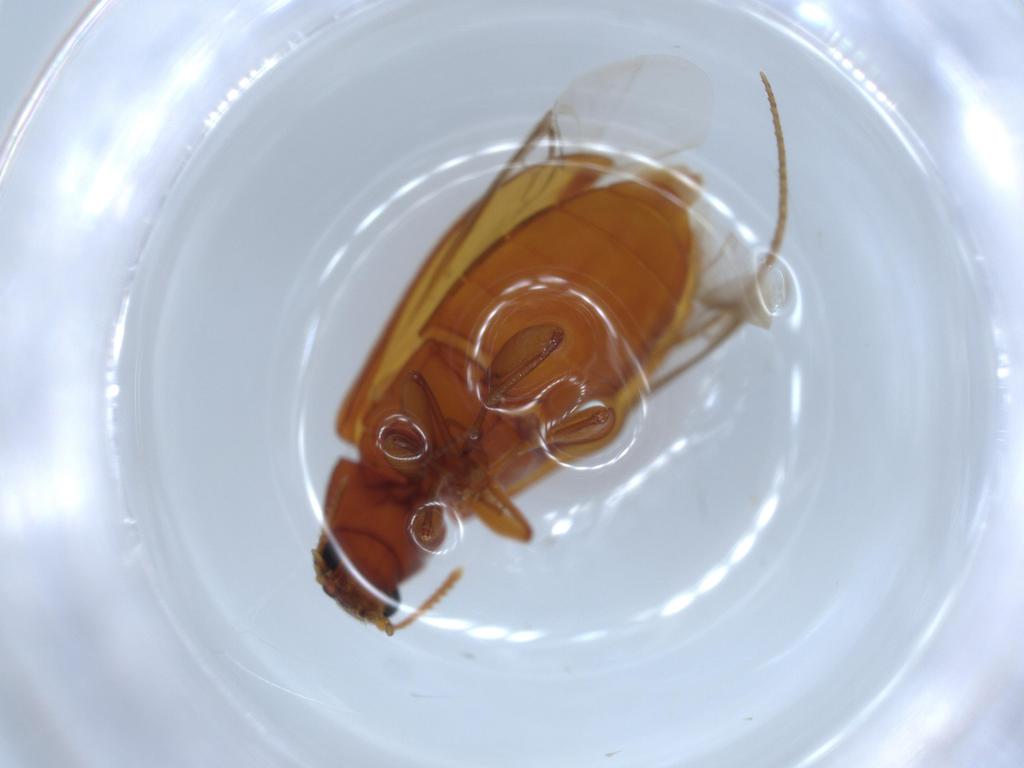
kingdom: Animalia
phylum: Arthropoda
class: Insecta
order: Coleoptera
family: Mycteridae
